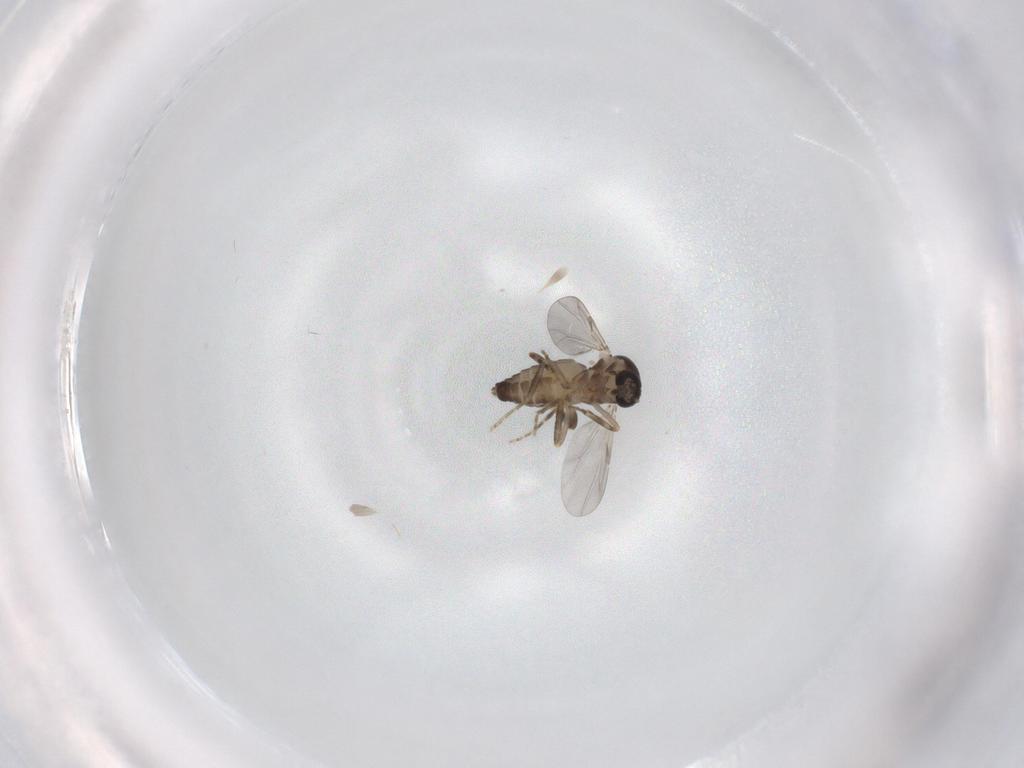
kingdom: Animalia
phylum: Arthropoda
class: Insecta
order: Diptera
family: Ceratopogonidae
